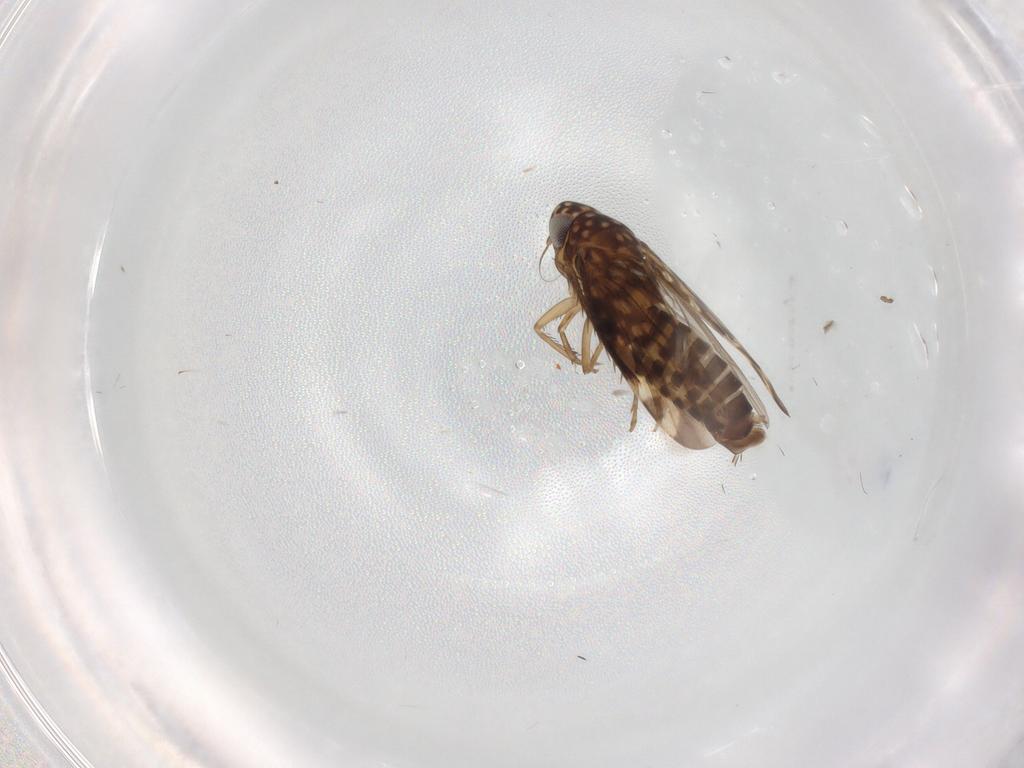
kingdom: Animalia
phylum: Arthropoda
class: Insecta
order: Hemiptera
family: Cicadellidae
